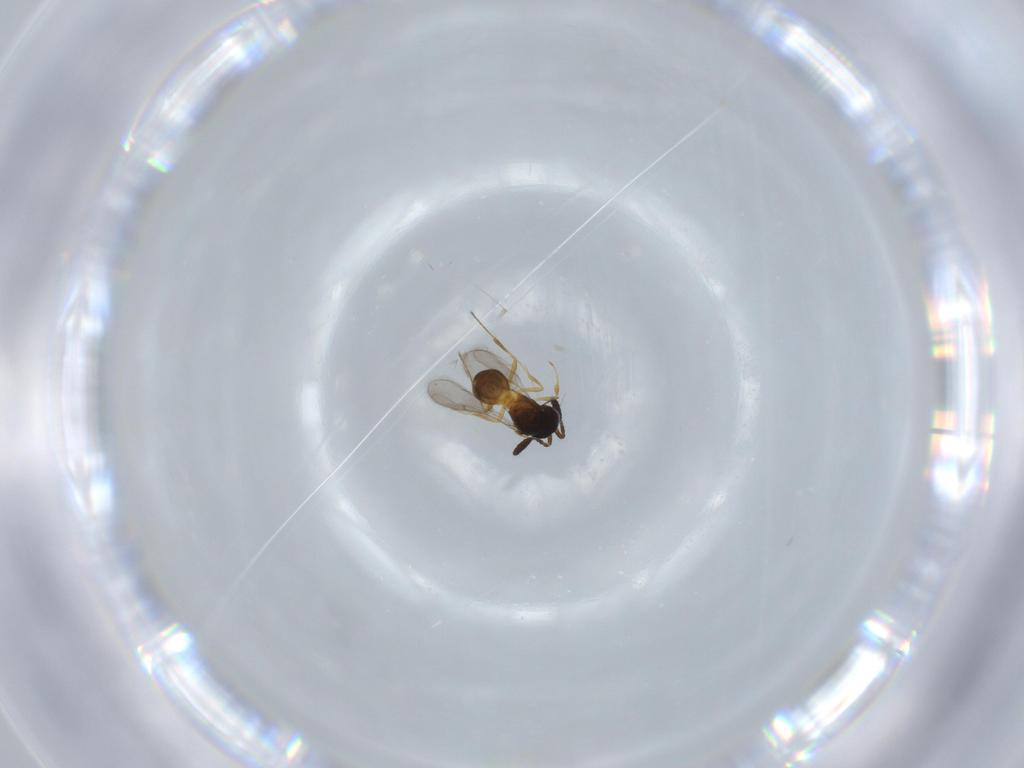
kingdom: Animalia
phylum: Arthropoda
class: Insecta
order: Hymenoptera
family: Scelionidae
